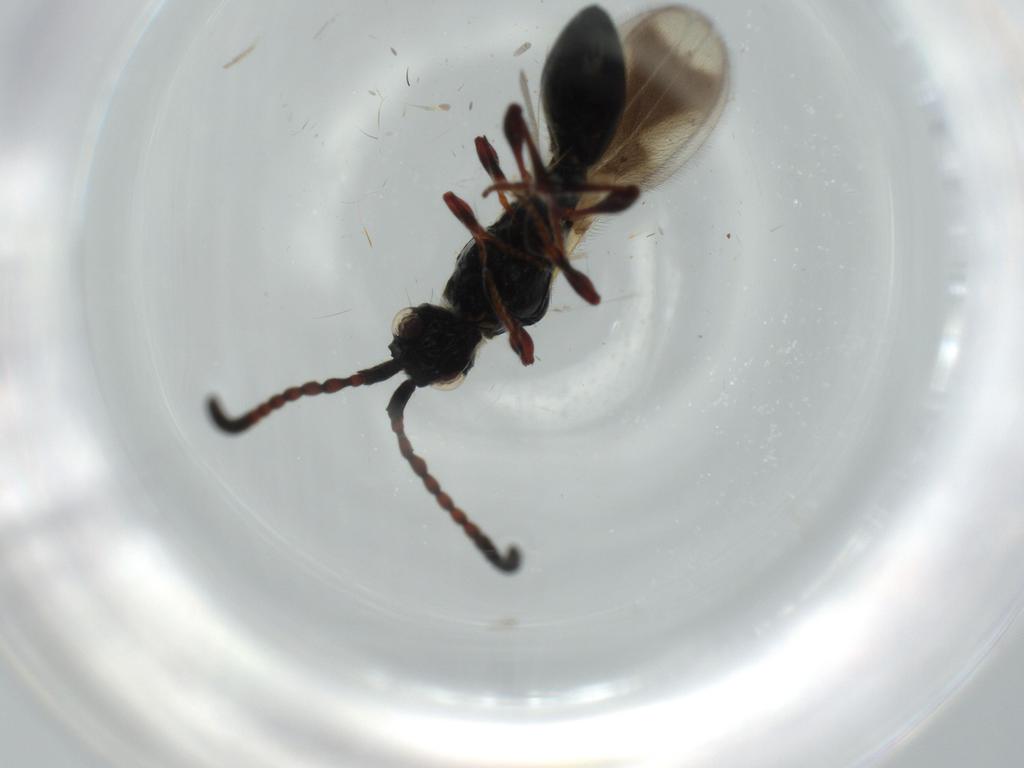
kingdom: Animalia
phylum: Arthropoda
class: Insecta
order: Hymenoptera
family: Diapriidae
